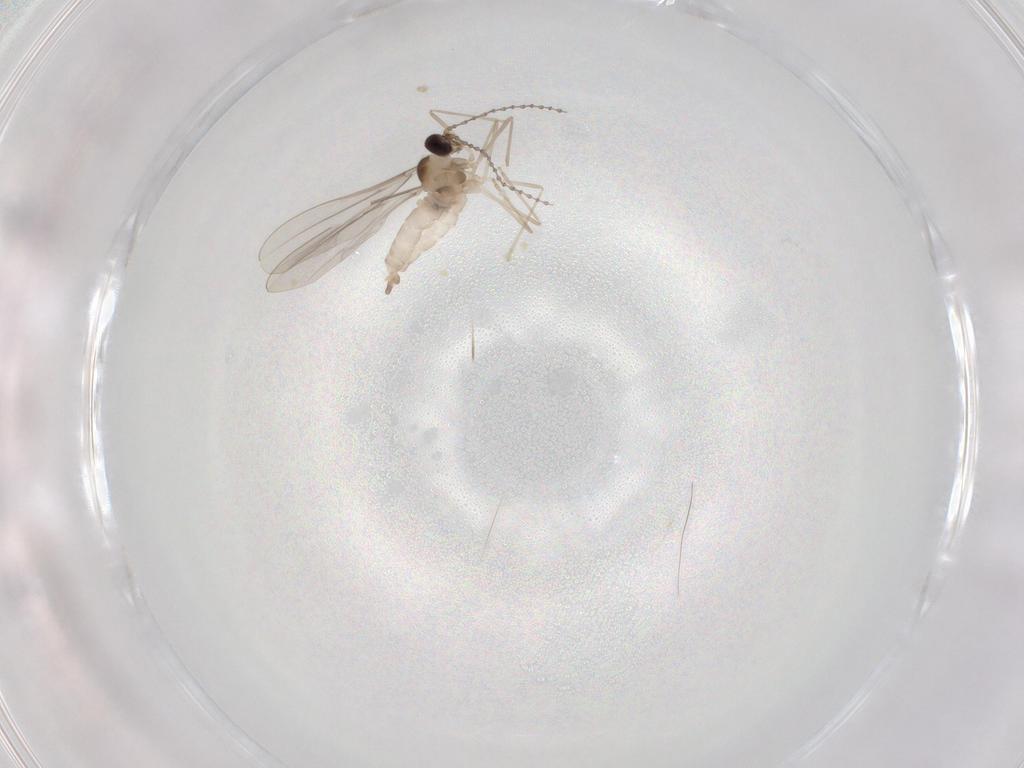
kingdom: Animalia
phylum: Arthropoda
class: Insecta
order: Diptera
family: Cecidomyiidae
